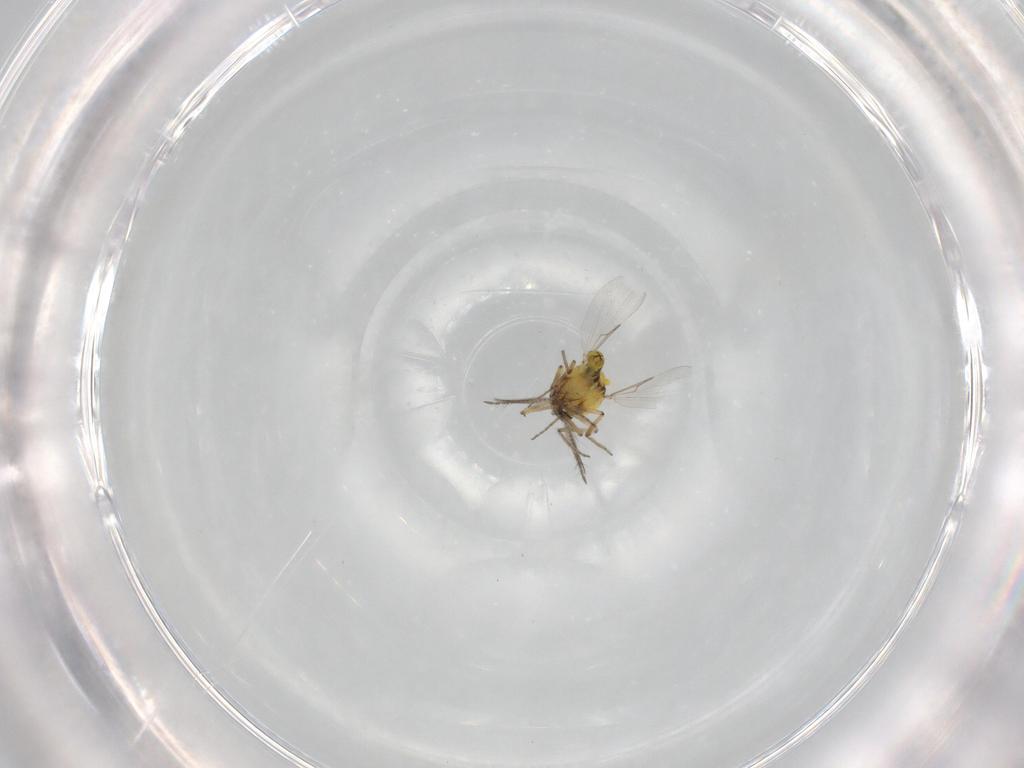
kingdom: Animalia
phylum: Arthropoda
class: Insecta
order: Diptera
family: Ceratopogonidae
